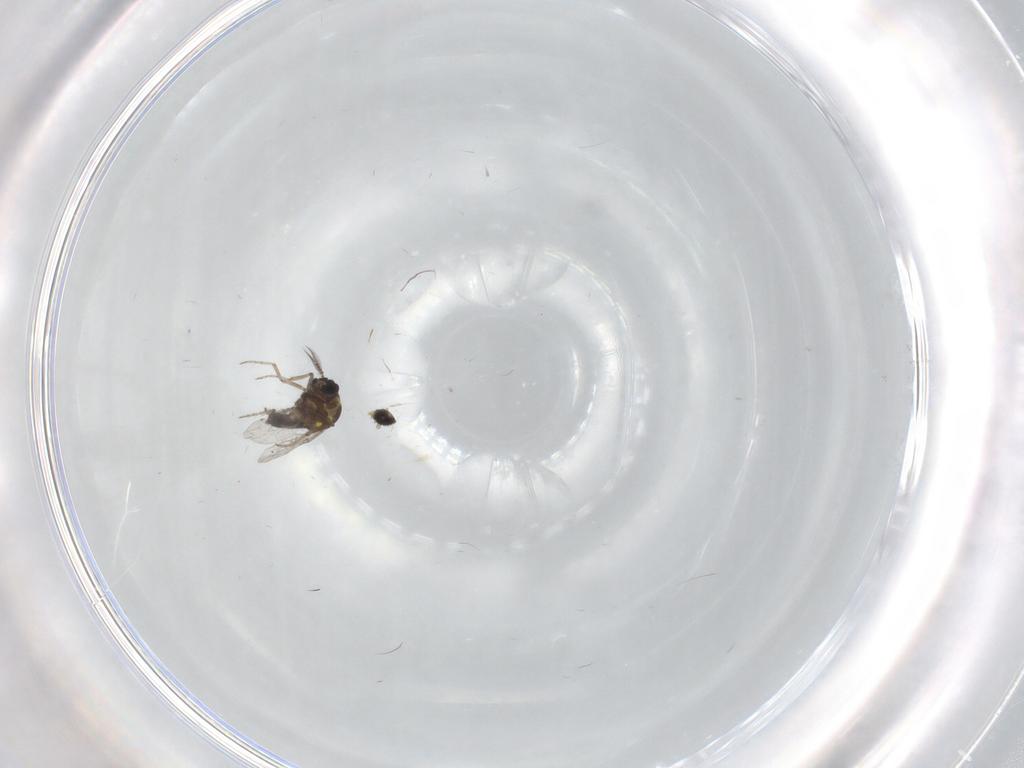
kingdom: Animalia
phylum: Arthropoda
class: Insecta
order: Diptera
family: Ceratopogonidae
